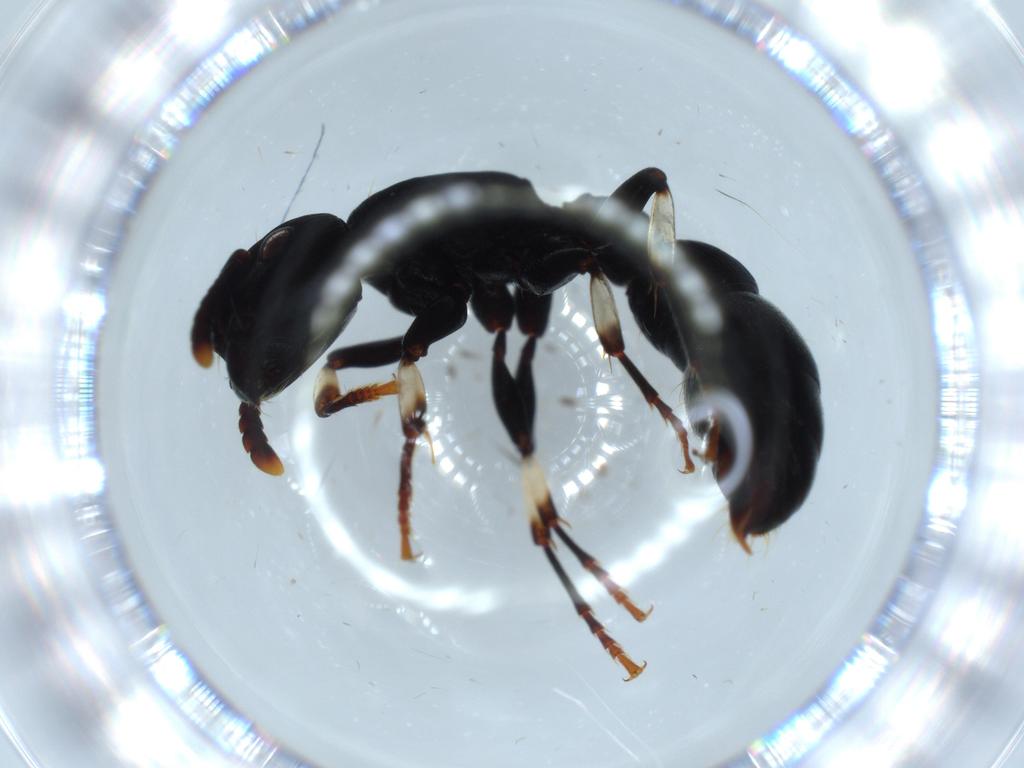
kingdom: Animalia
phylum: Arthropoda
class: Insecta
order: Hymenoptera
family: Formicidae
